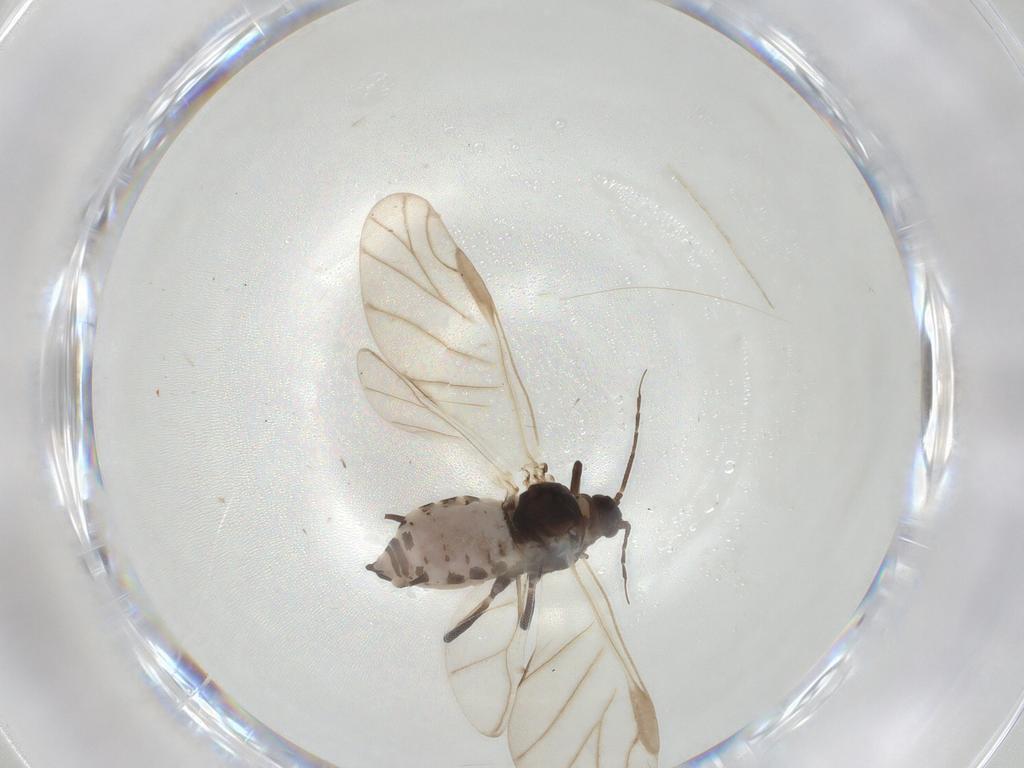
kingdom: Animalia
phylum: Arthropoda
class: Insecta
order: Hemiptera
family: Aphididae
